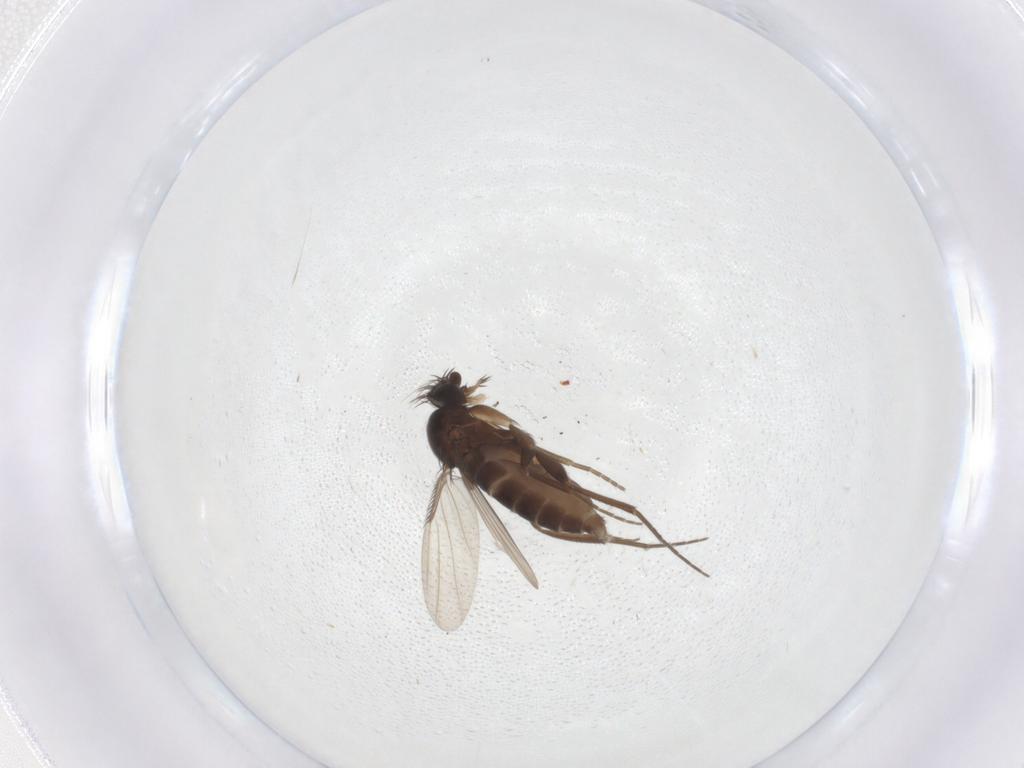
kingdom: Animalia
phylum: Arthropoda
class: Insecta
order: Diptera
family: Phoridae
